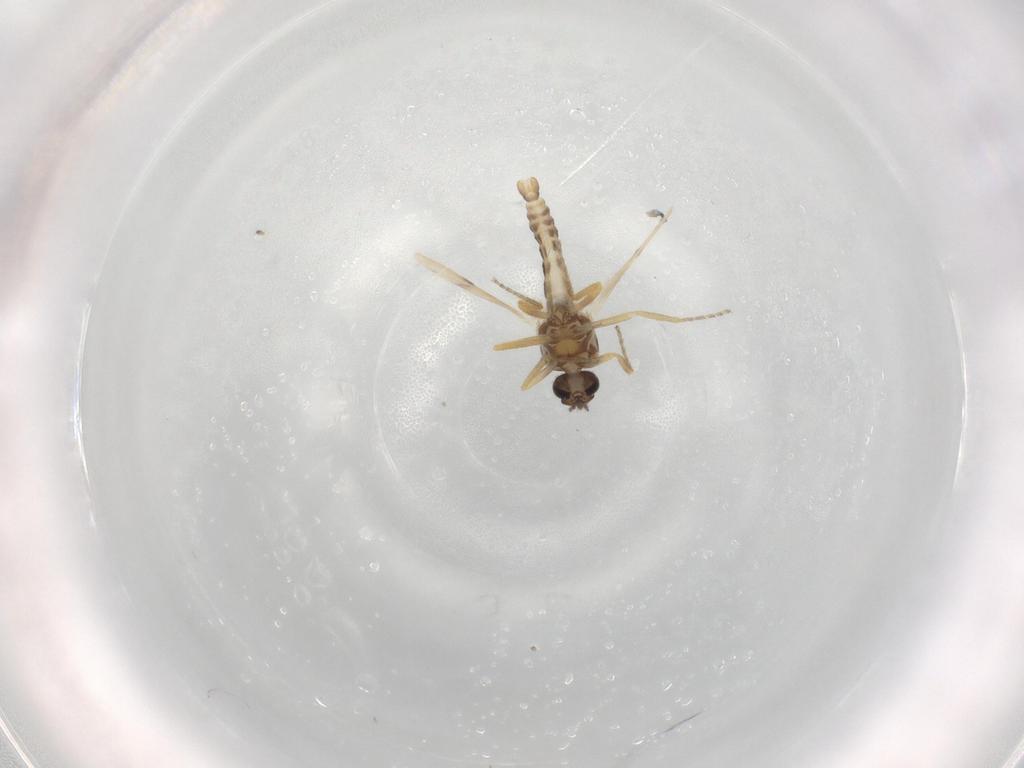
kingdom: Animalia
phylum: Arthropoda
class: Insecta
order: Diptera
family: Ceratopogonidae
